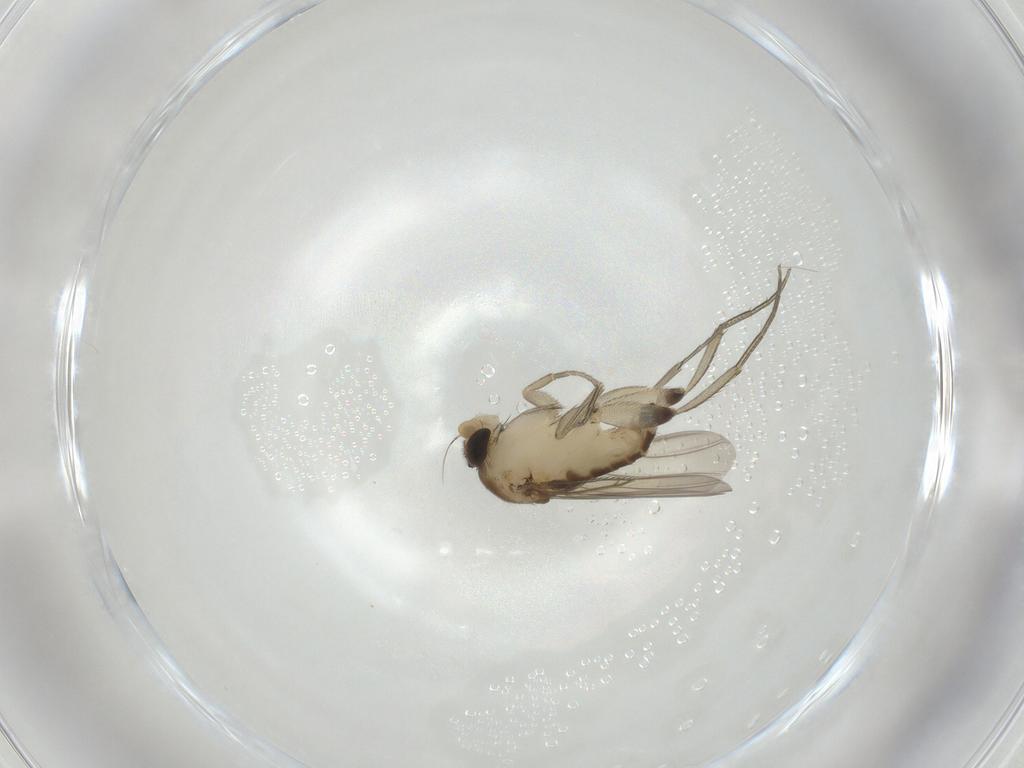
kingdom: Animalia
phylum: Arthropoda
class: Insecta
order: Diptera
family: Phoridae
